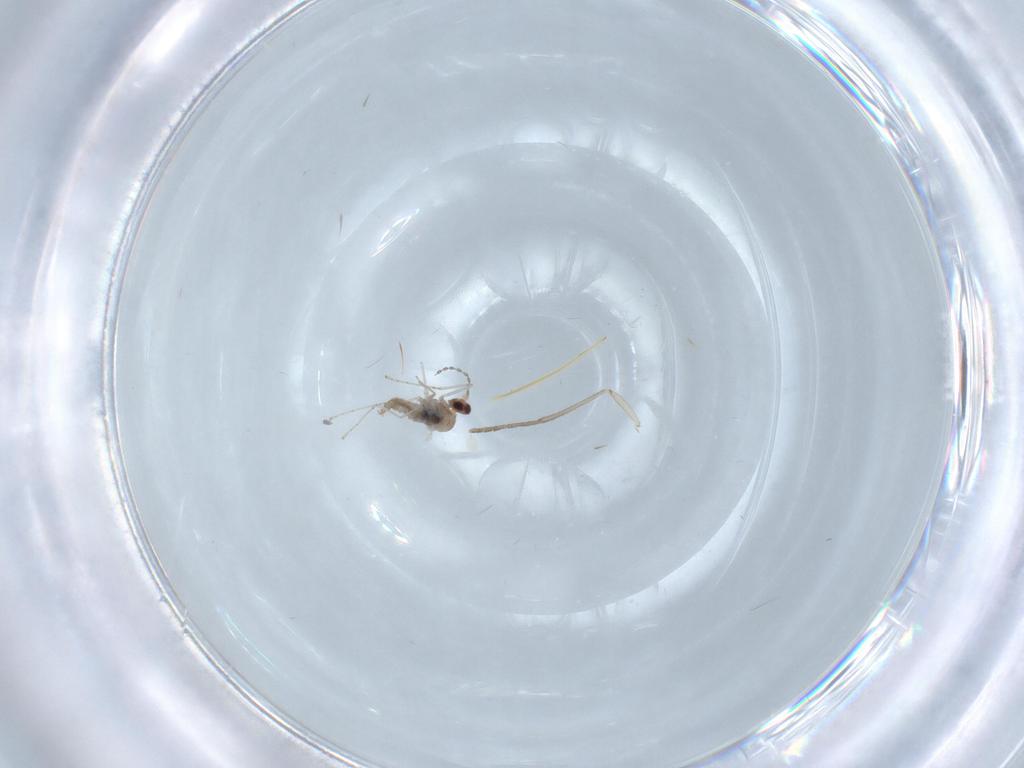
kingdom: Animalia
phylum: Arthropoda
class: Insecta
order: Diptera
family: Cecidomyiidae
